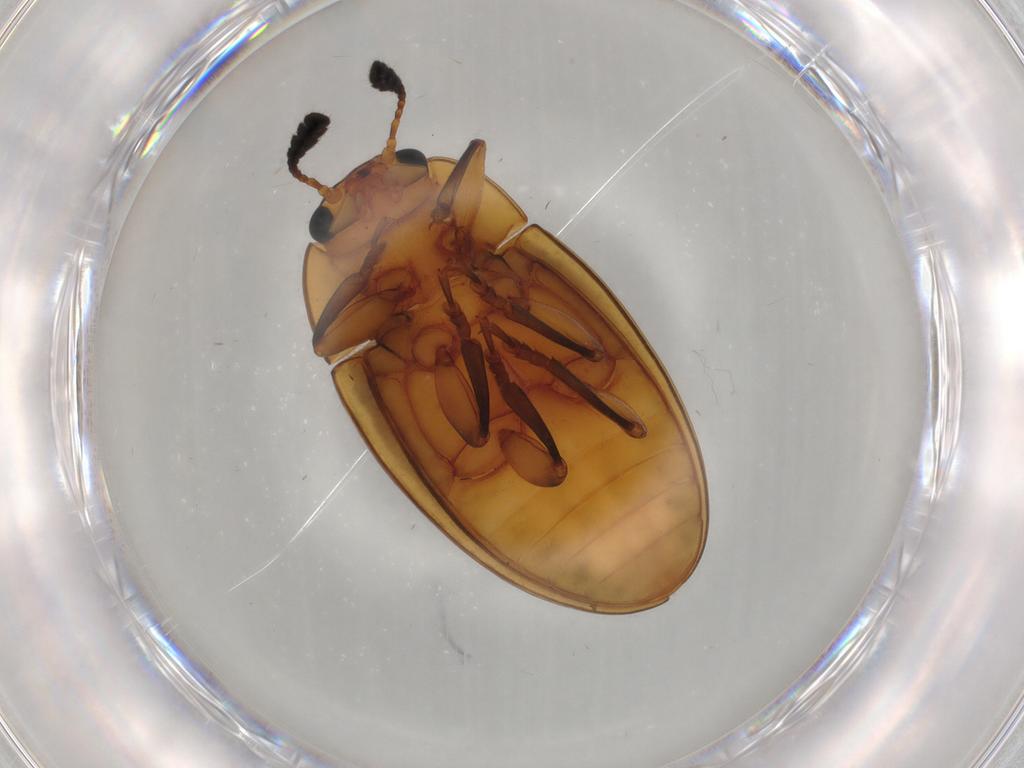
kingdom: Animalia
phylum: Arthropoda
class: Insecta
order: Coleoptera
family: Erotylidae
